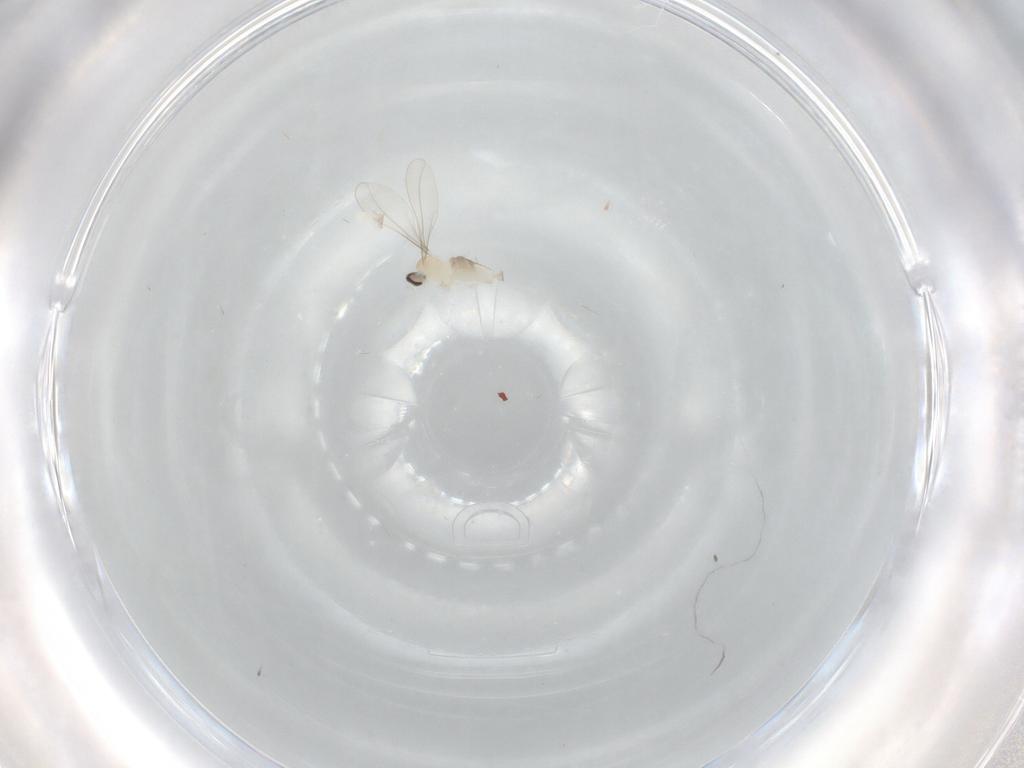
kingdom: Animalia
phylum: Arthropoda
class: Insecta
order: Diptera
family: Cecidomyiidae
